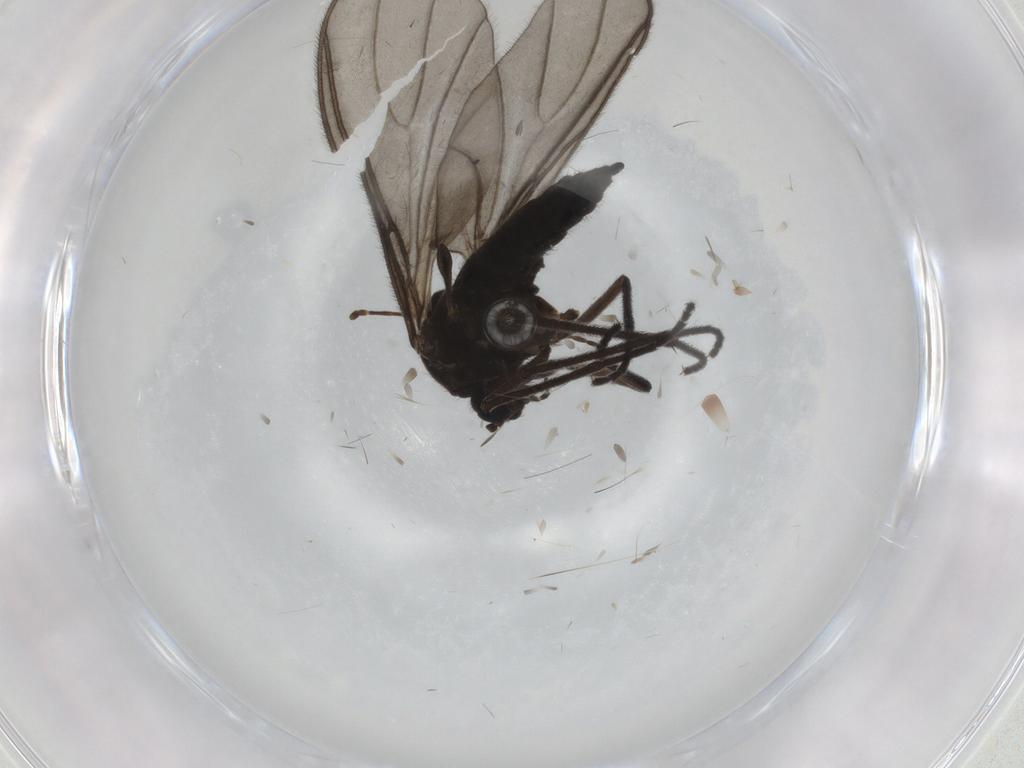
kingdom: Animalia
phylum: Arthropoda
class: Insecta
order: Diptera
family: Sciaridae
